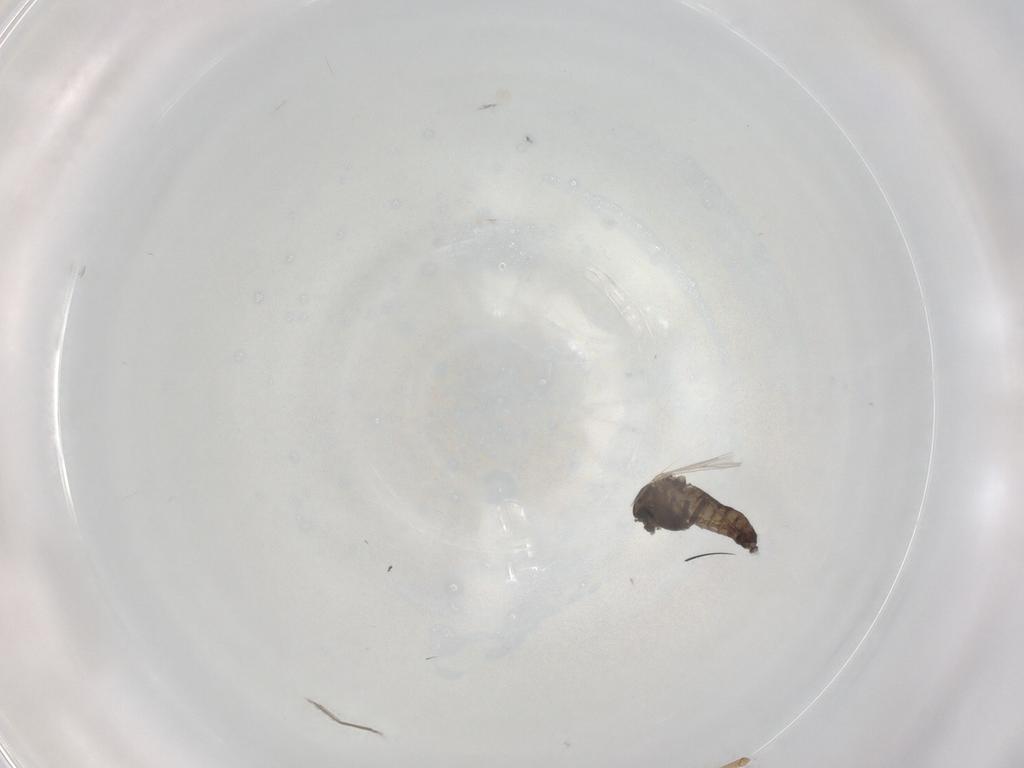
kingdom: Animalia
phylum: Arthropoda
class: Insecta
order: Diptera
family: Chironomidae
